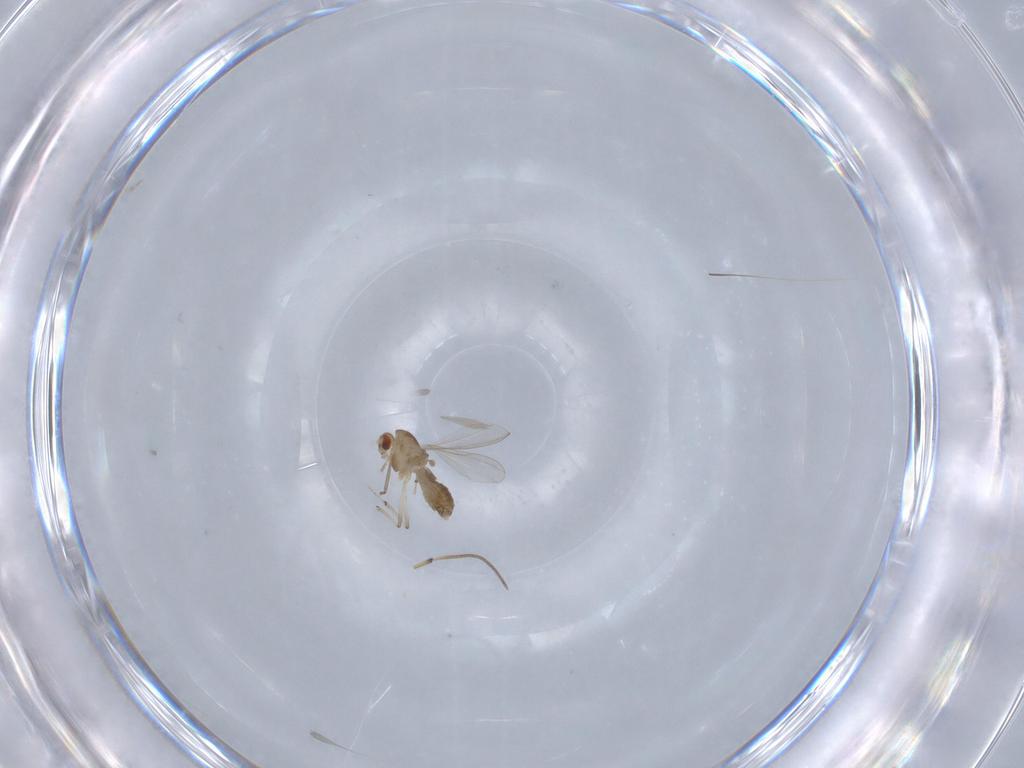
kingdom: Animalia
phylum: Arthropoda
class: Insecta
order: Diptera
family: Chironomidae
